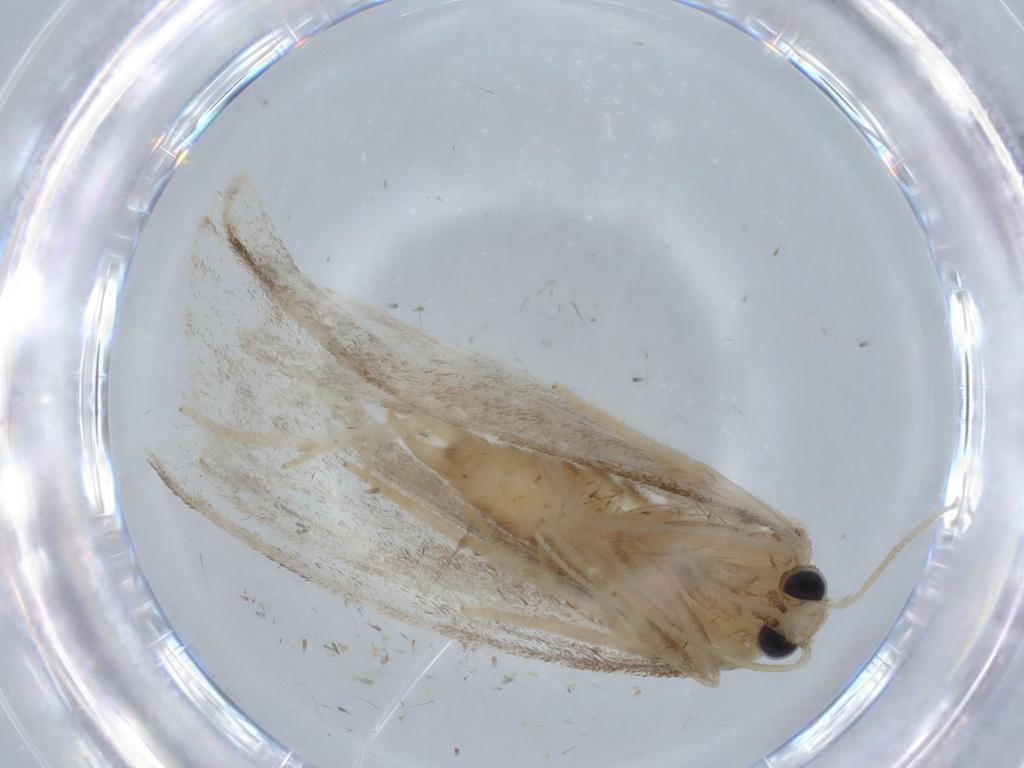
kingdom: Animalia
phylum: Arthropoda
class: Insecta
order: Lepidoptera
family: Erebidae
